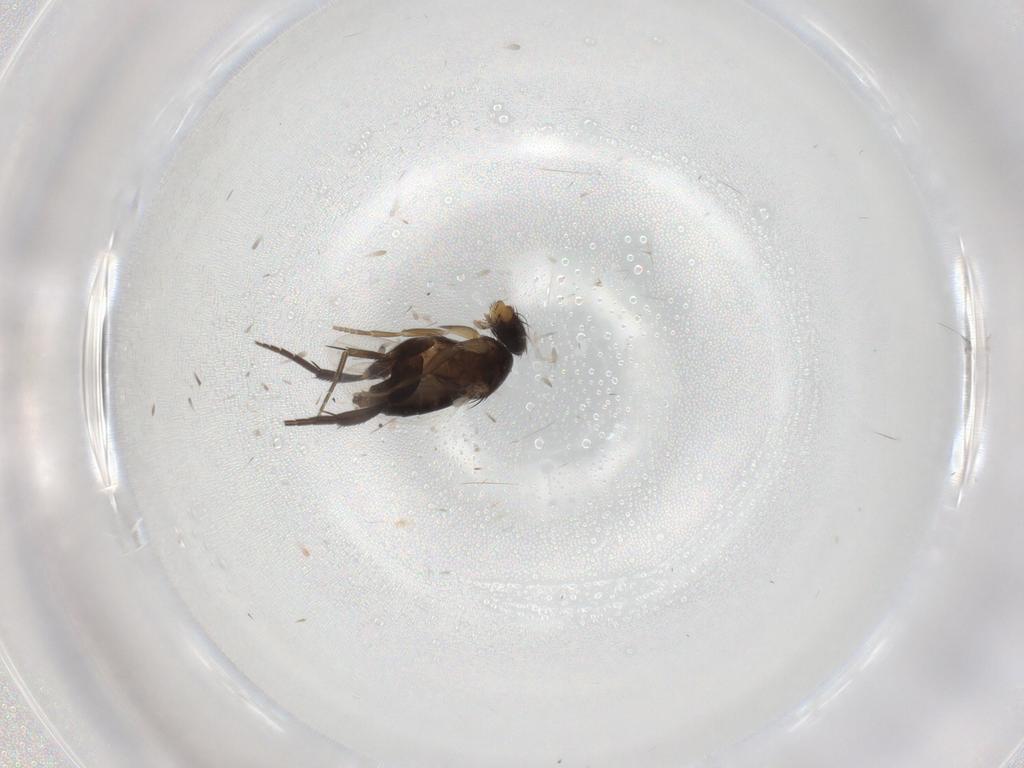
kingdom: Animalia
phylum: Arthropoda
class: Insecta
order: Diptera
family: Phoridae
